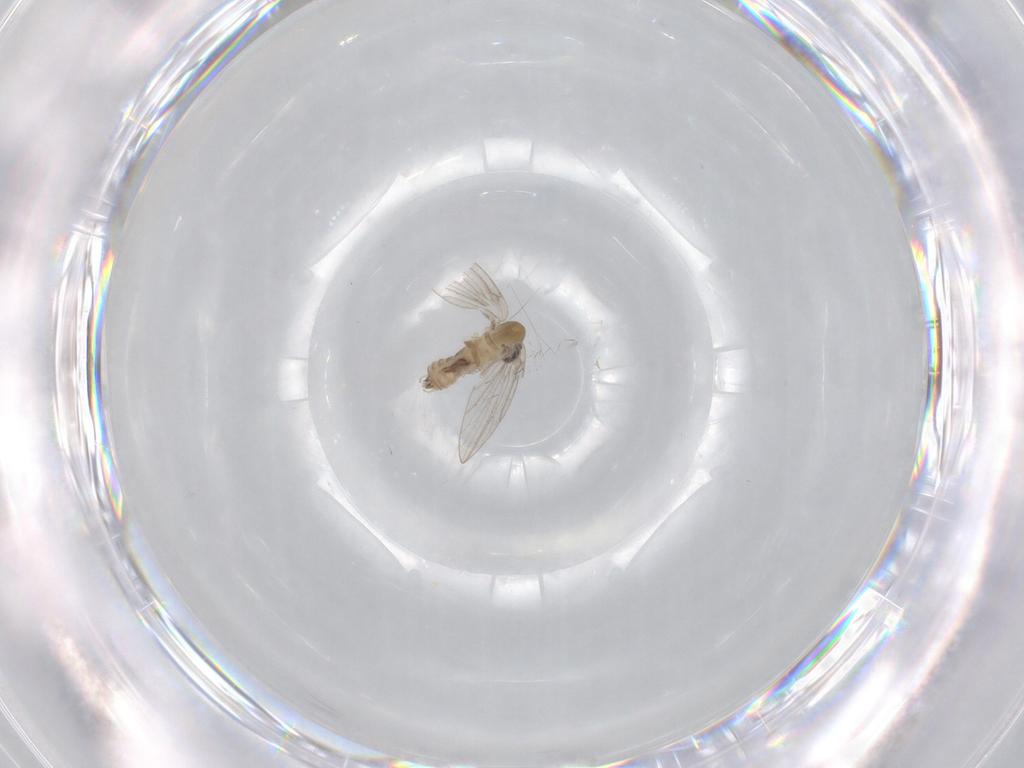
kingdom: Animalia
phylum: Arthropoda
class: Insecta
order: Diptera
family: Psychodidae
